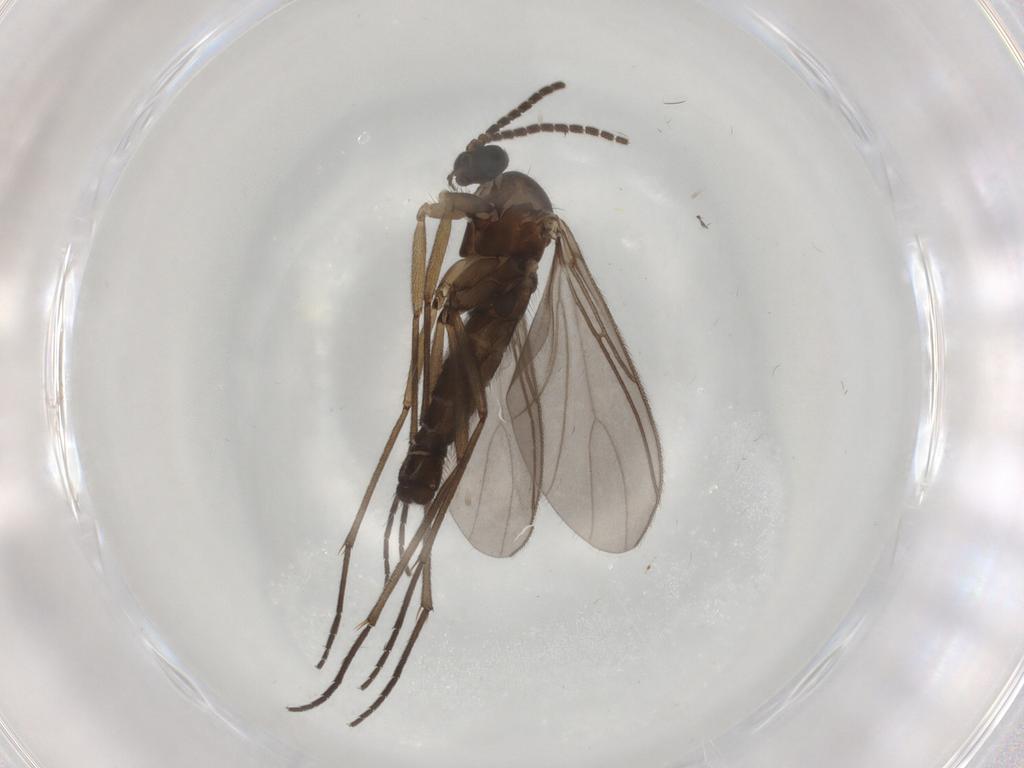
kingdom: Animalia
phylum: Arthropoda
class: Insecta
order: Diptera
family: Sciaridae
